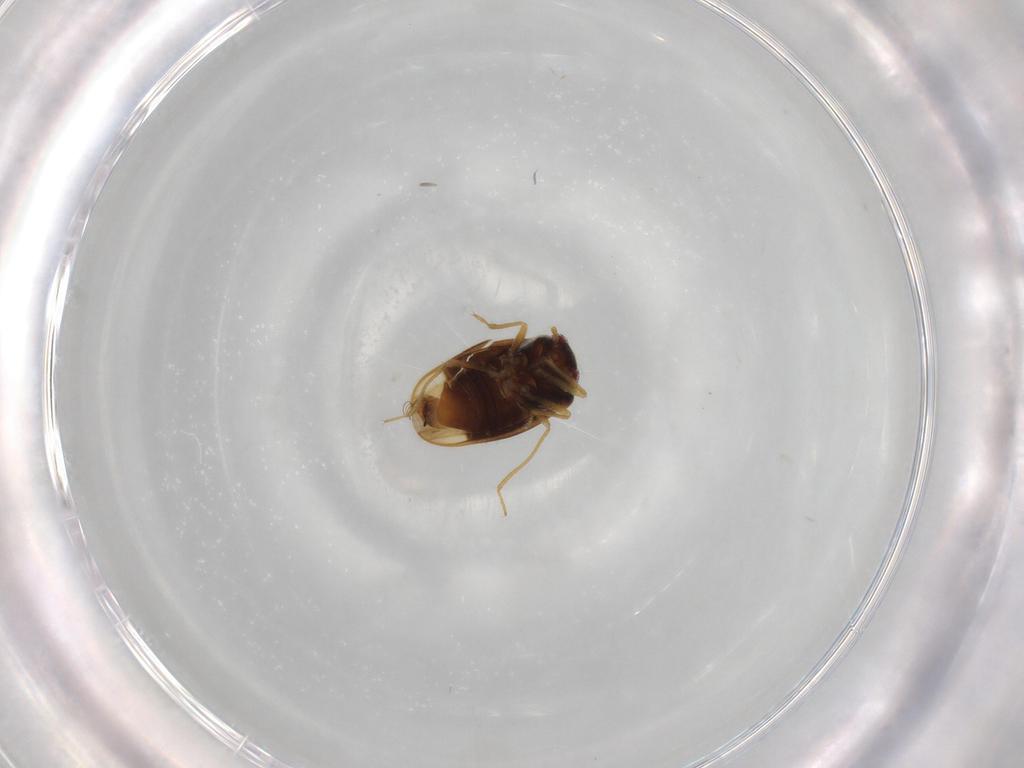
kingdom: Animalia
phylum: Arthropoda
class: Insecta
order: Hemiptera
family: Schizopteridae
